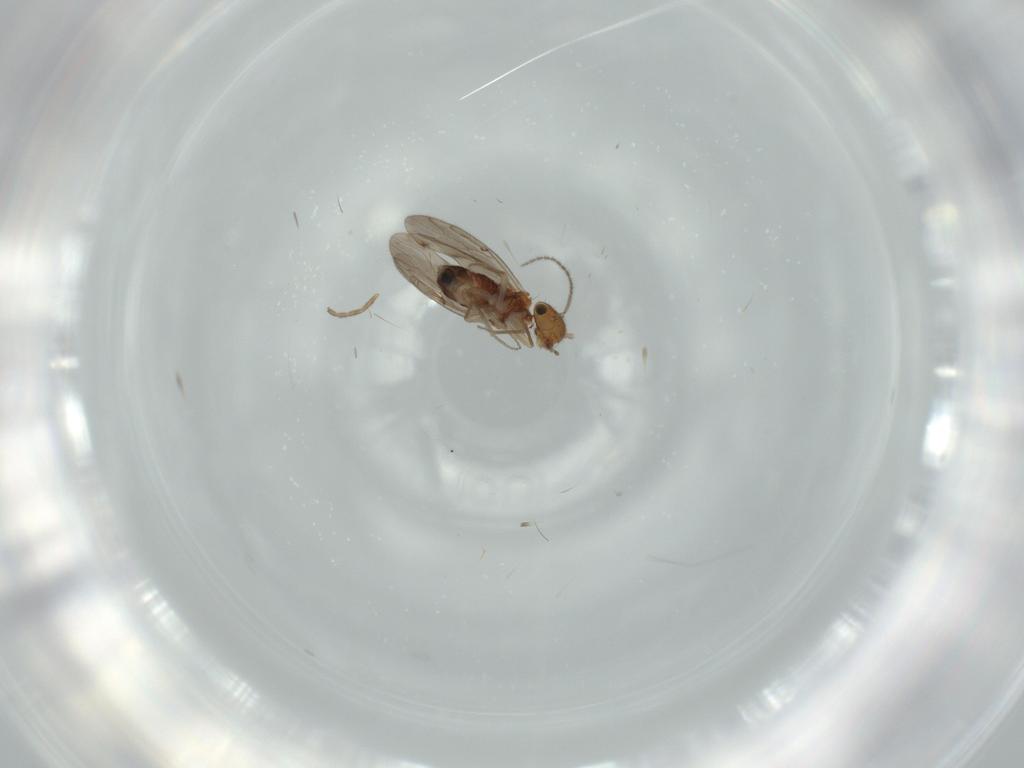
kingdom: Animalia
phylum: Arthropoda
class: Insecta
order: Psocodea
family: Ectopsocidae
